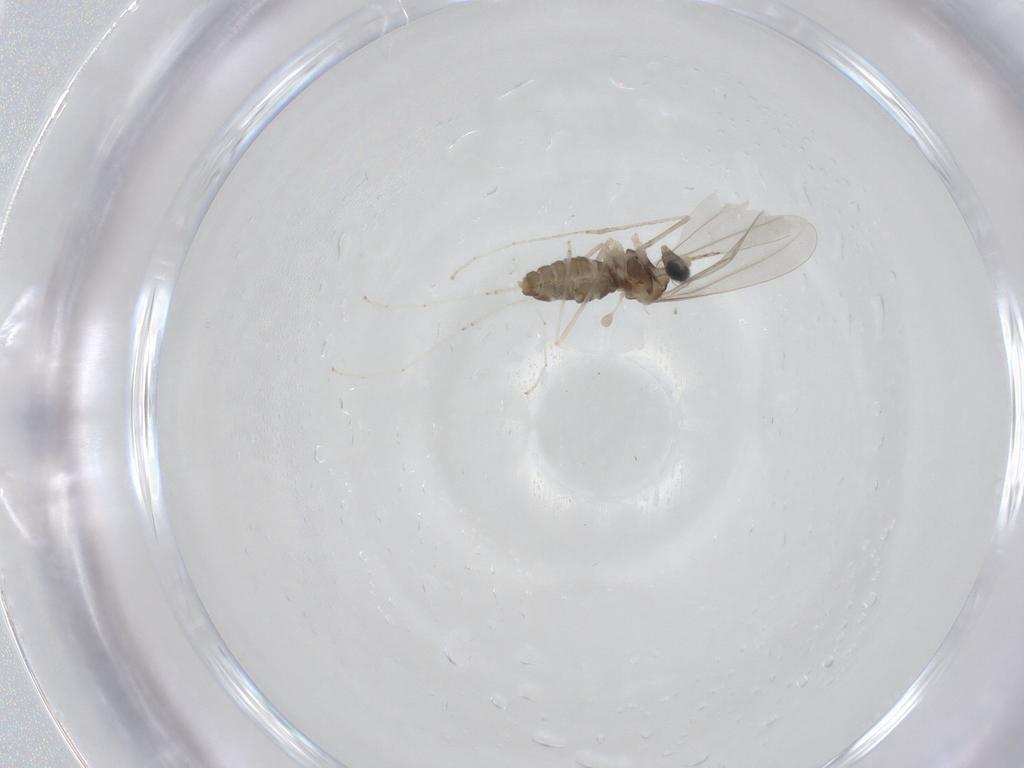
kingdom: Animalia
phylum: Arthropoda
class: Insecta
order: Diptera
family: Cecidomyiidae
